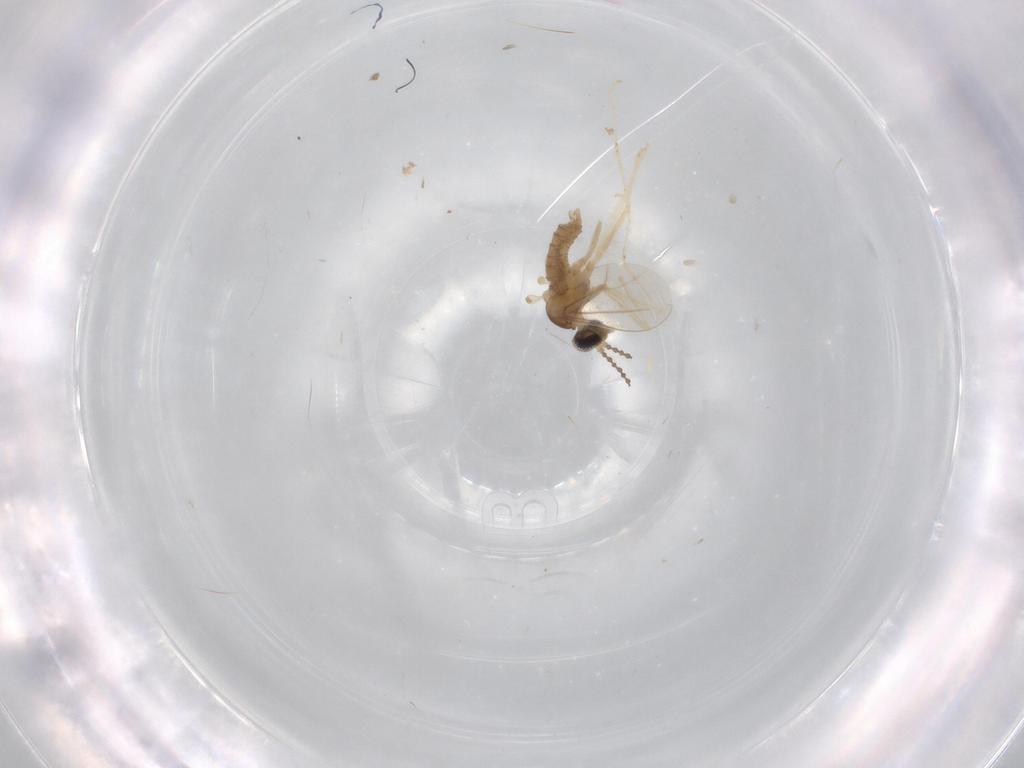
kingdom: Animalia
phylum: Arthropoda
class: Insecta
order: Diptera
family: Cecidomyiidae
